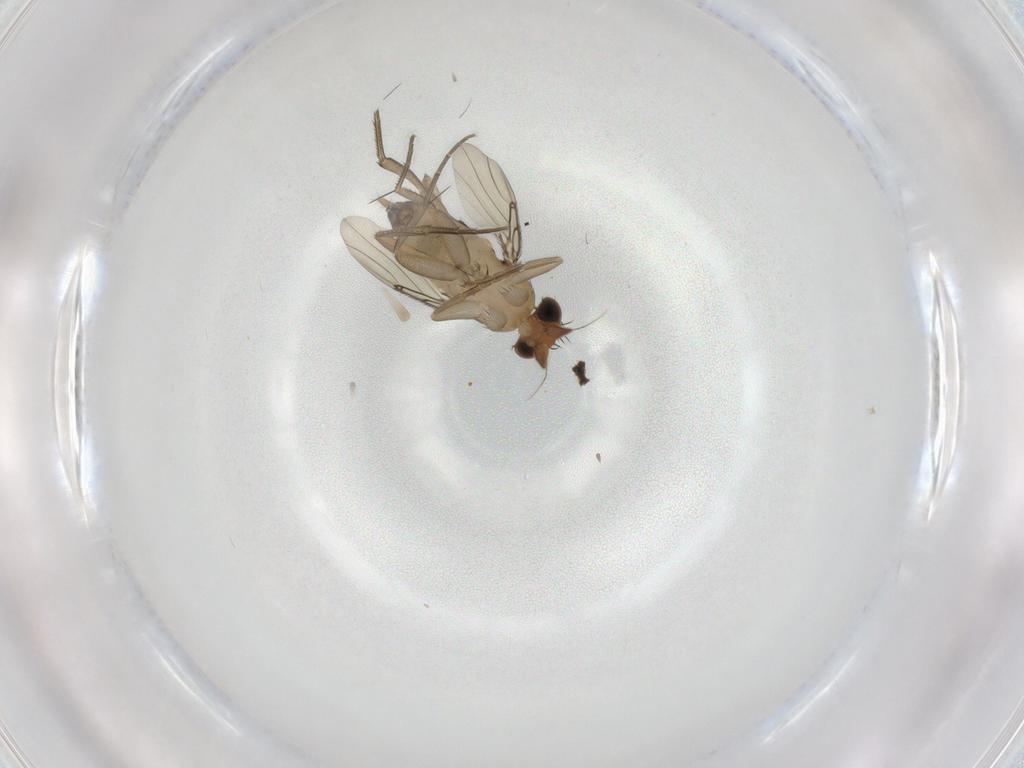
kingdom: Animalia
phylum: Arthropoda
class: Insecta
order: Diptera
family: Phoridae
